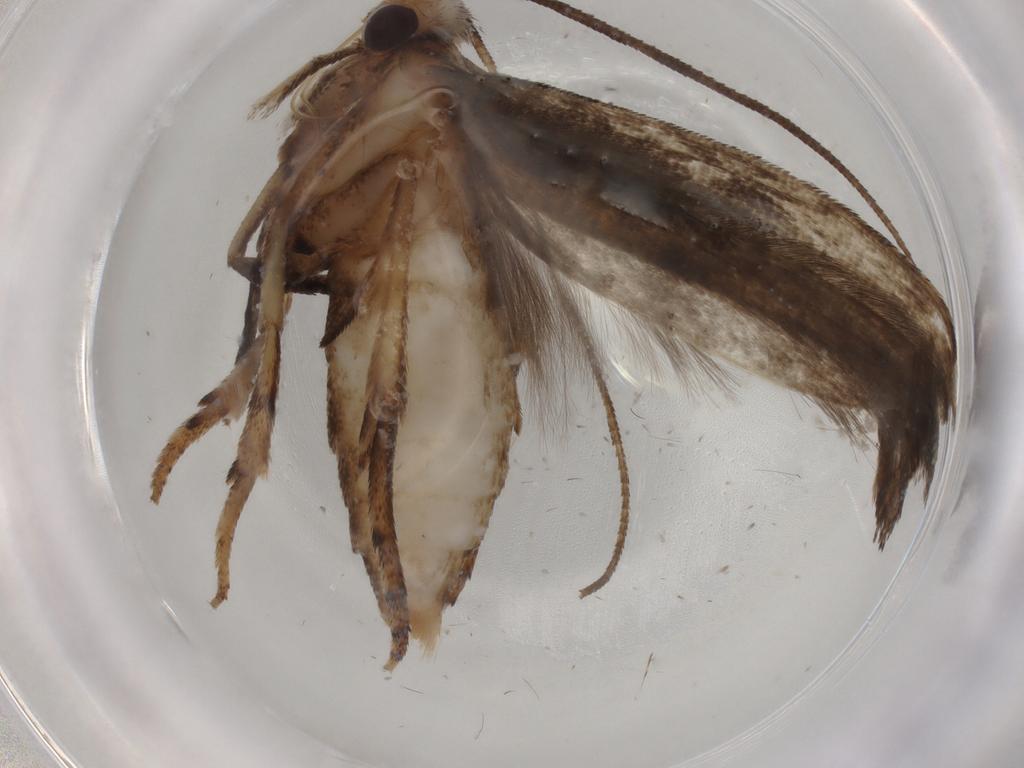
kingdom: Animalia
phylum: Arthropoda
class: Insecta
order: Lepidoptera
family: Yponomeutidae
